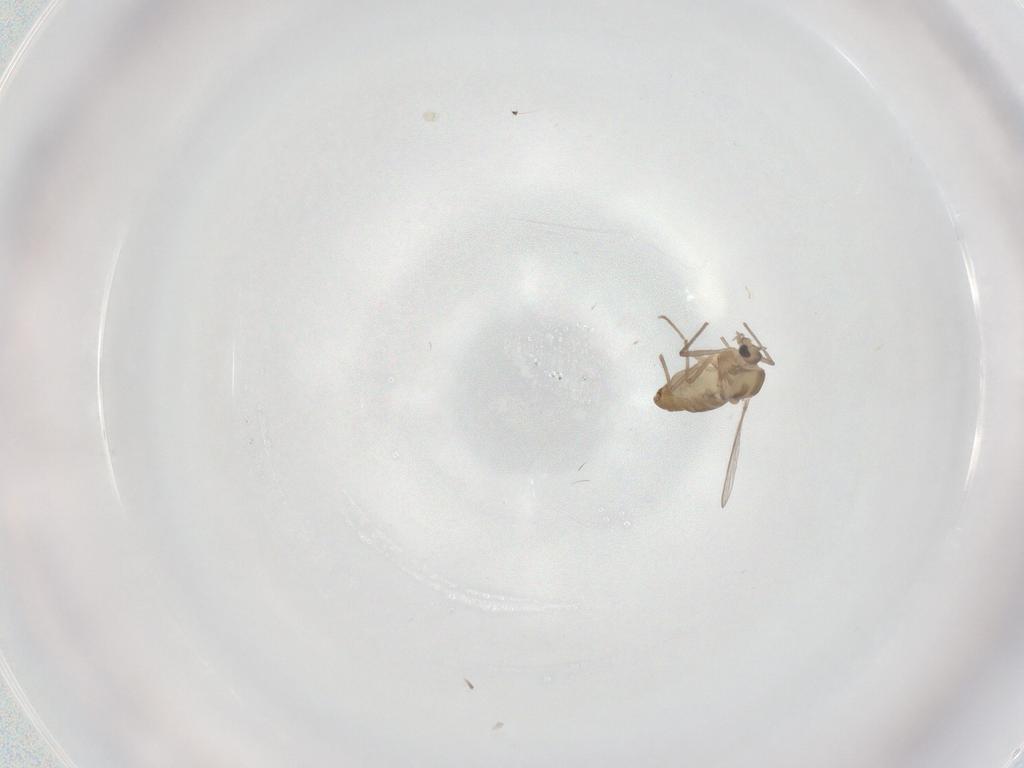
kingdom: Animalia
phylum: Arthropoda
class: Insecta
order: Diptera
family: Chironomidae
